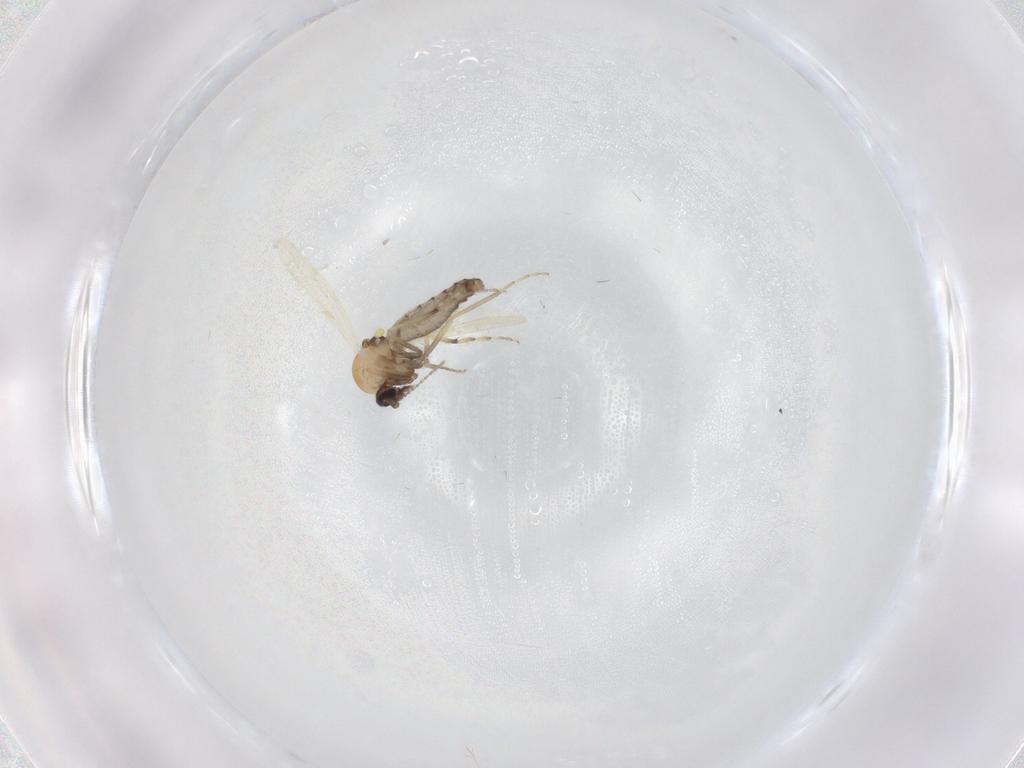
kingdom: Animalia
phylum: Arthropoda
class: Insecta
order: Diptera
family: Ceratopogonidae
